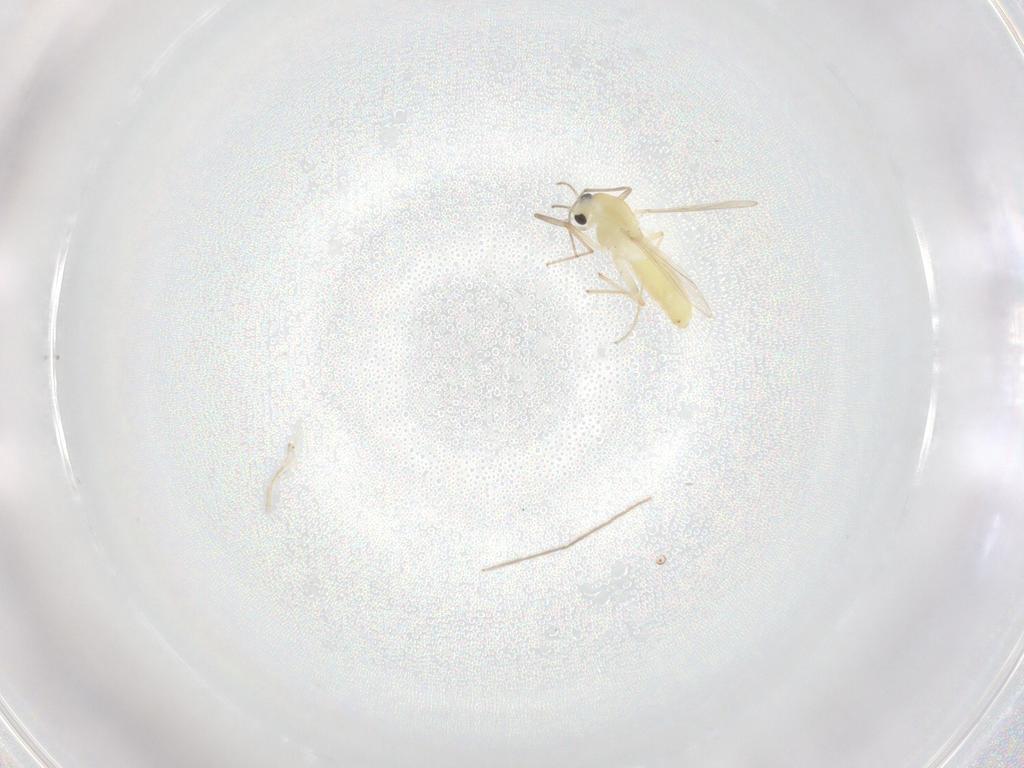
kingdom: Animalia
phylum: Arthropoda
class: Insecta
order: Diptera
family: Chironomidae
